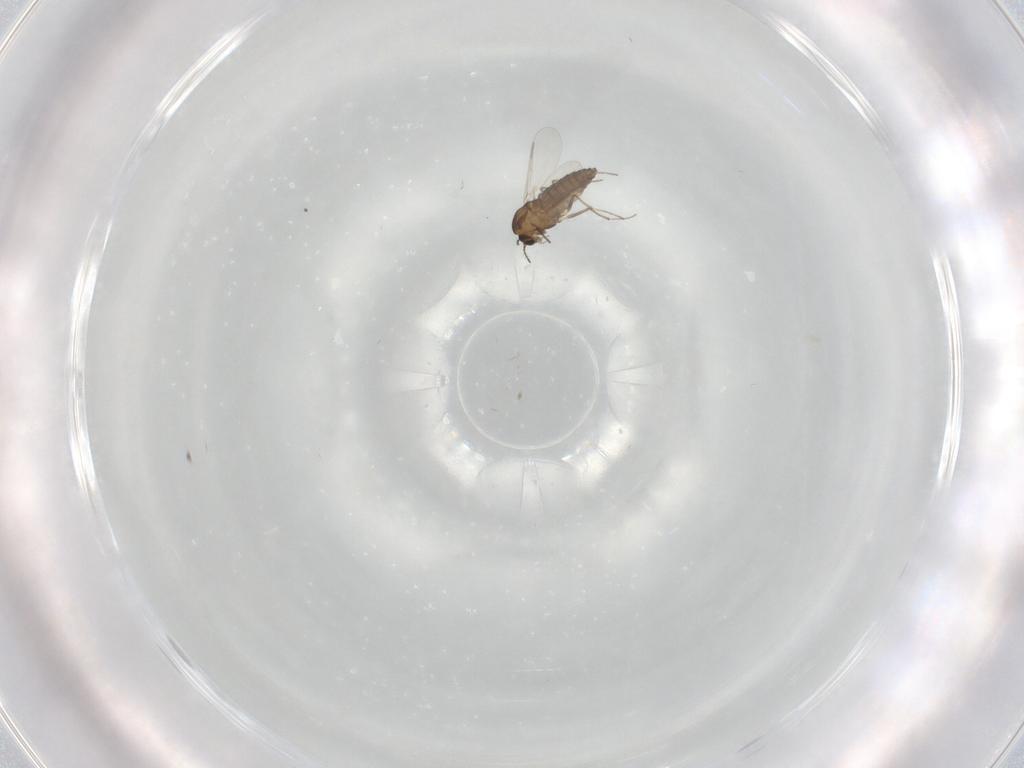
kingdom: Animalia
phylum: Arthropoda
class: Insecta
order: Diptera
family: Chironomidae
